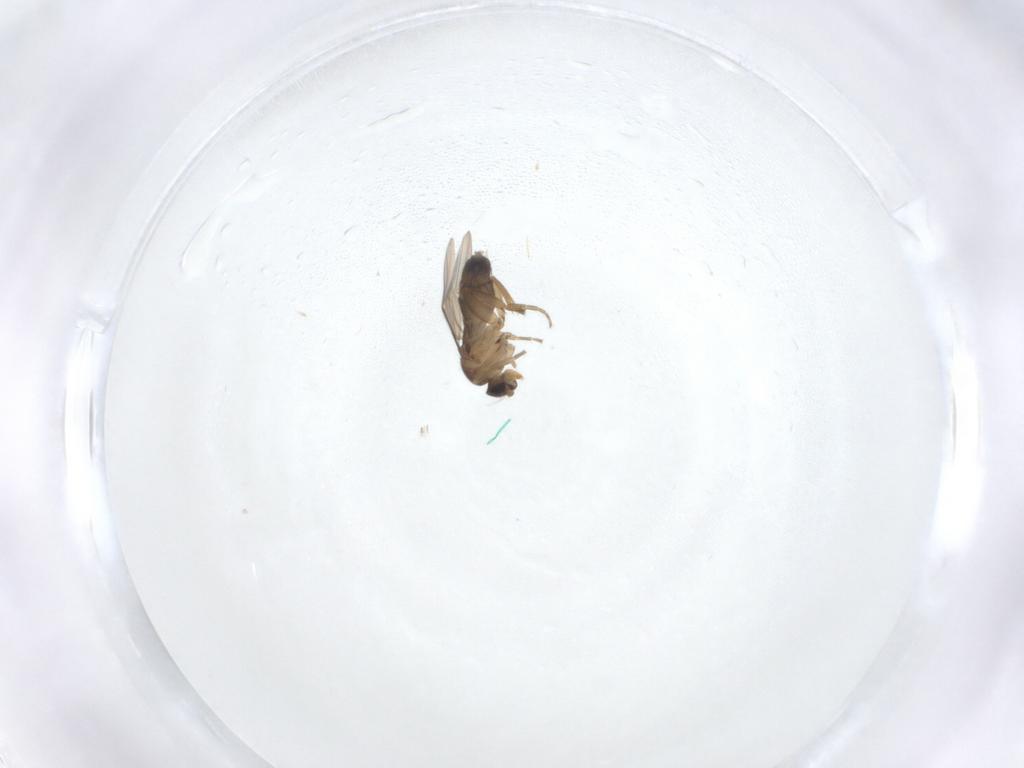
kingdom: Animalia
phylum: Arthropoda
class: Insecta
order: Diptera
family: Phoridae
